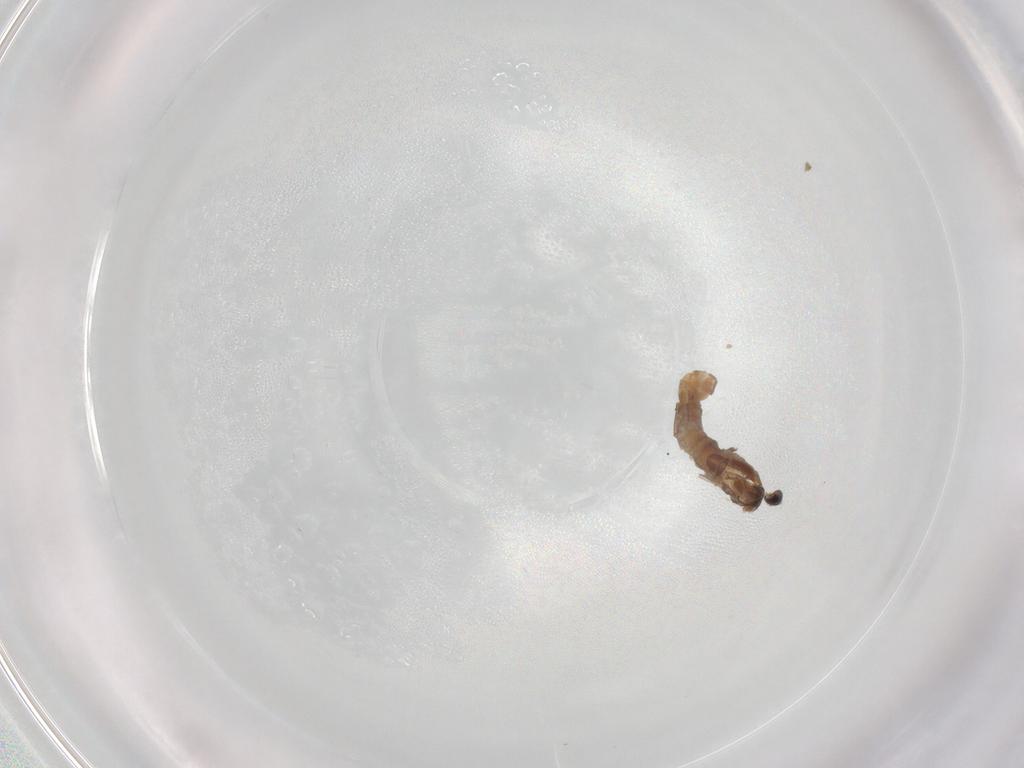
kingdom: Animalia
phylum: Arthropoda
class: Insecta
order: Diptera
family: Chironomidae
